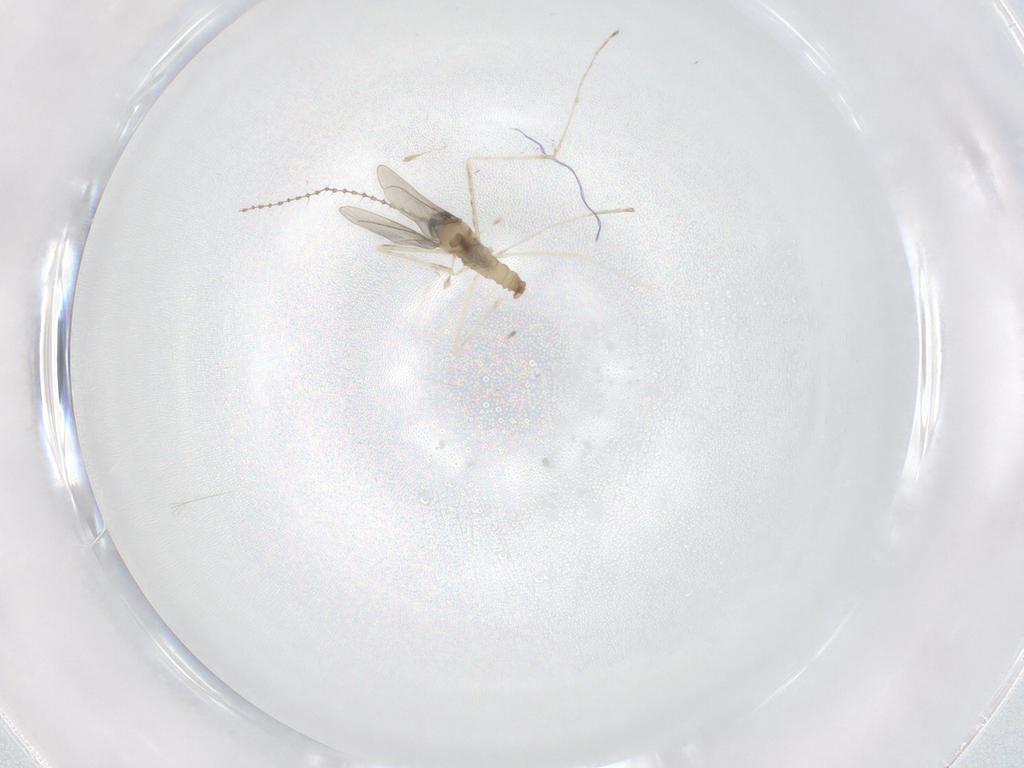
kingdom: Animalia
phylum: Arthropoda
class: Insecta
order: Diptera
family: Cecidomyiidae
